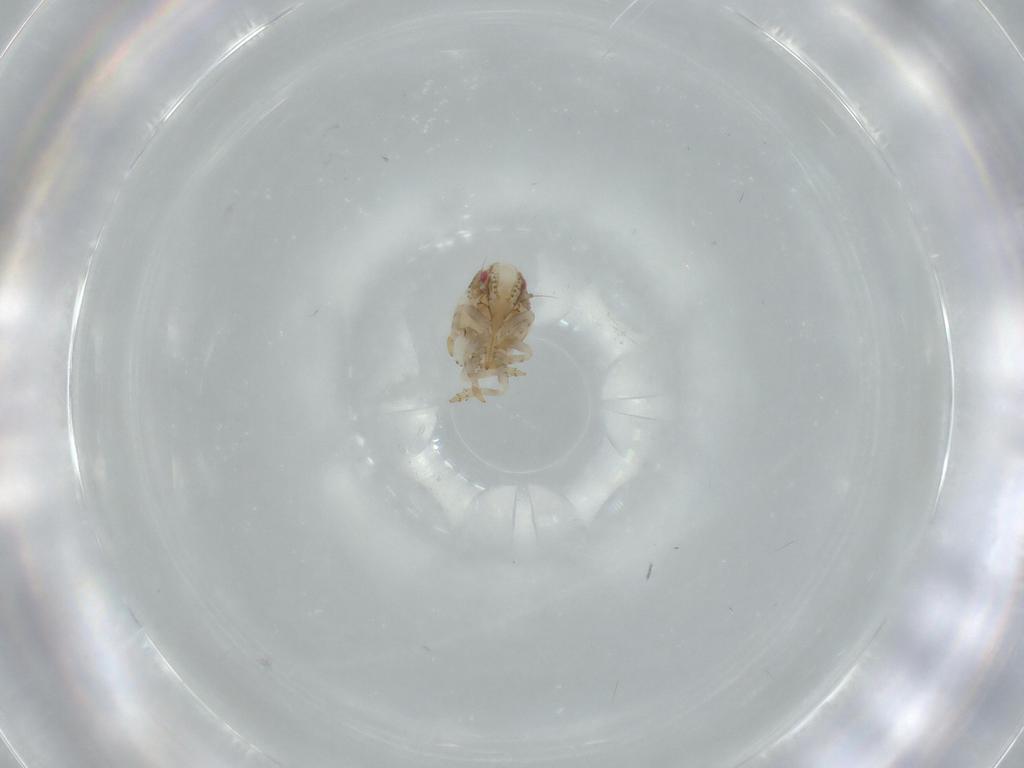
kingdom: Animalia
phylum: Arthropoda
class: Insecta
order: Hemiptera
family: Acanaloniidae
